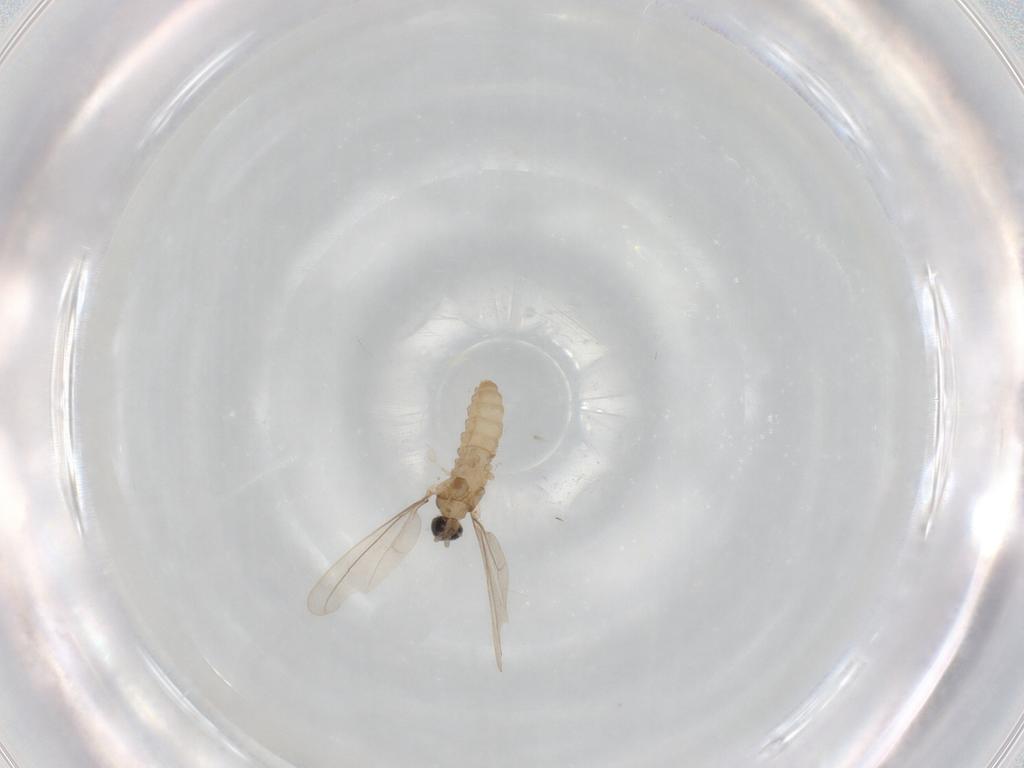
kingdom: Animalia
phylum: Arthropoda
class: Insecta
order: Diptera
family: Cecidomyiidae
